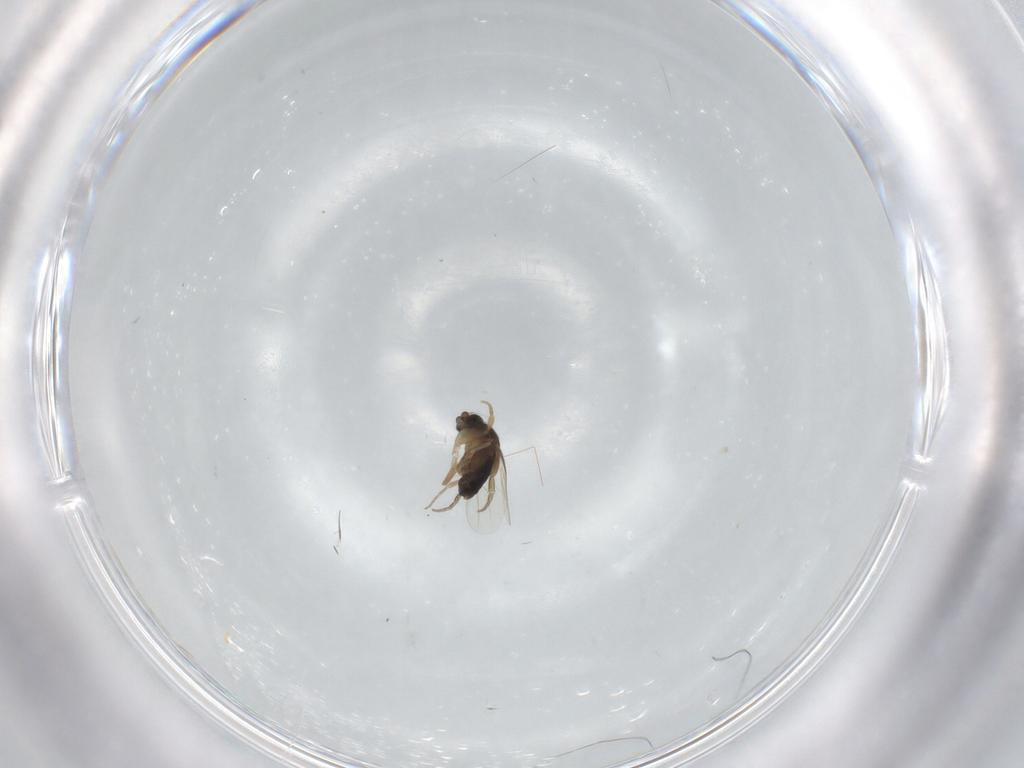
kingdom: Animalia
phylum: Arthropoda
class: Insecta
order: Diptera
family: Phoridae
